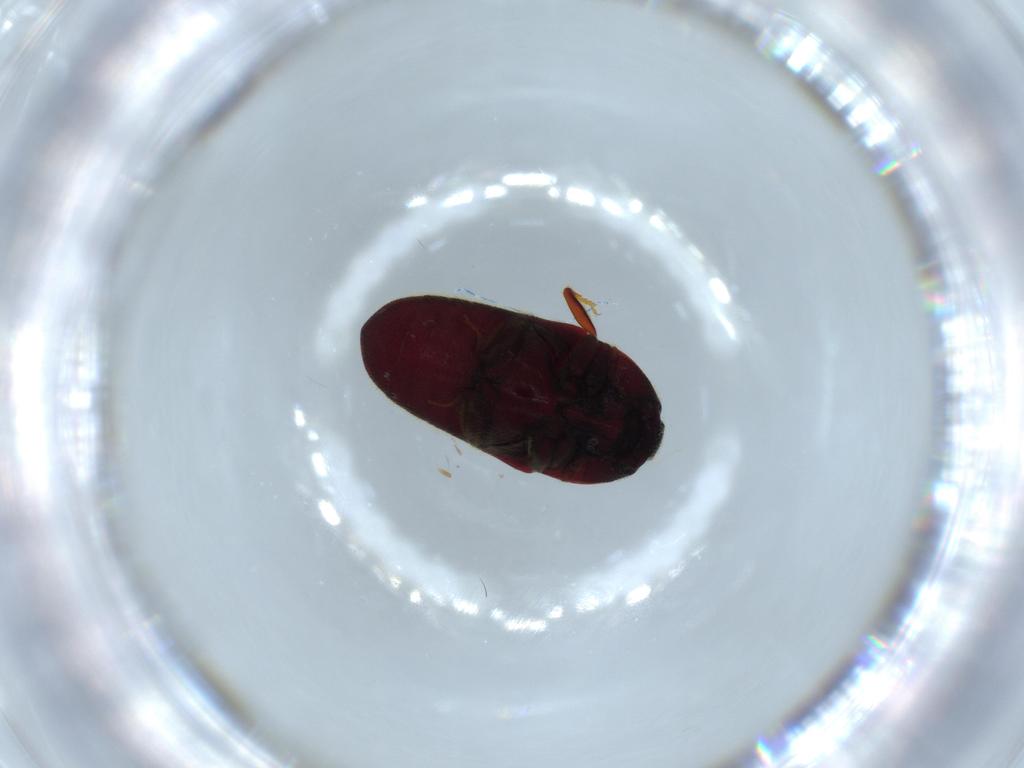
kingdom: Animalia
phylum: Arthropoda
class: Insecta
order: Coleoptera
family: Throscidae
